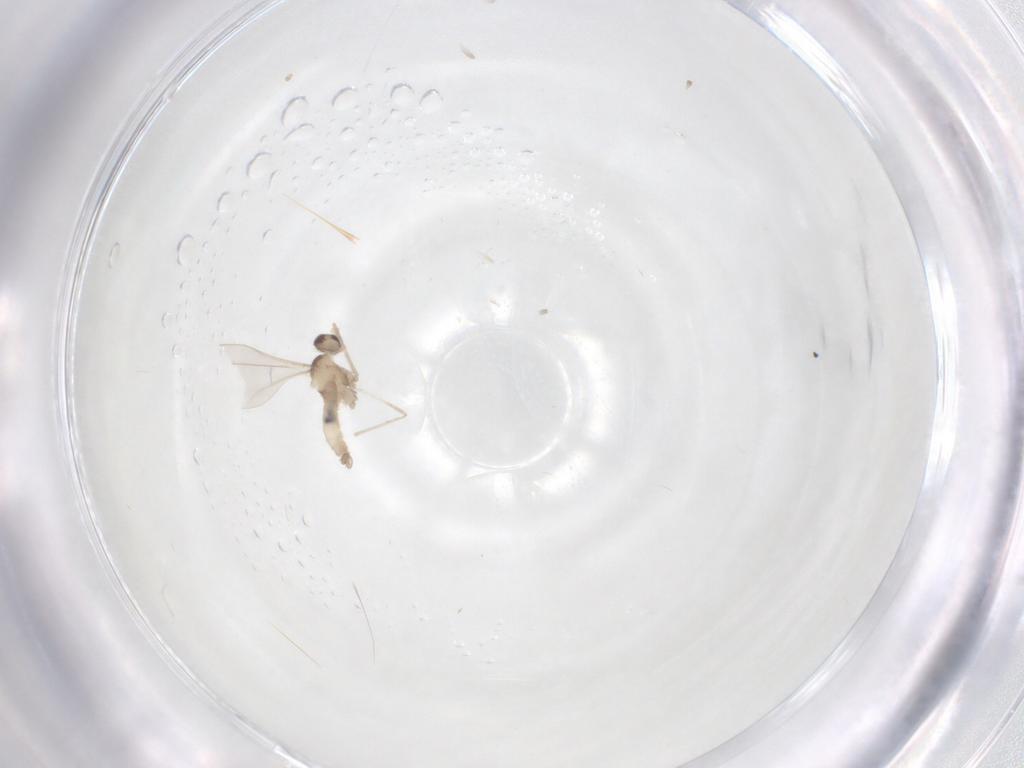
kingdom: Animalia
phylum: Arthropoda
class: Insecta
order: Diptera
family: Cecidomyiidae
